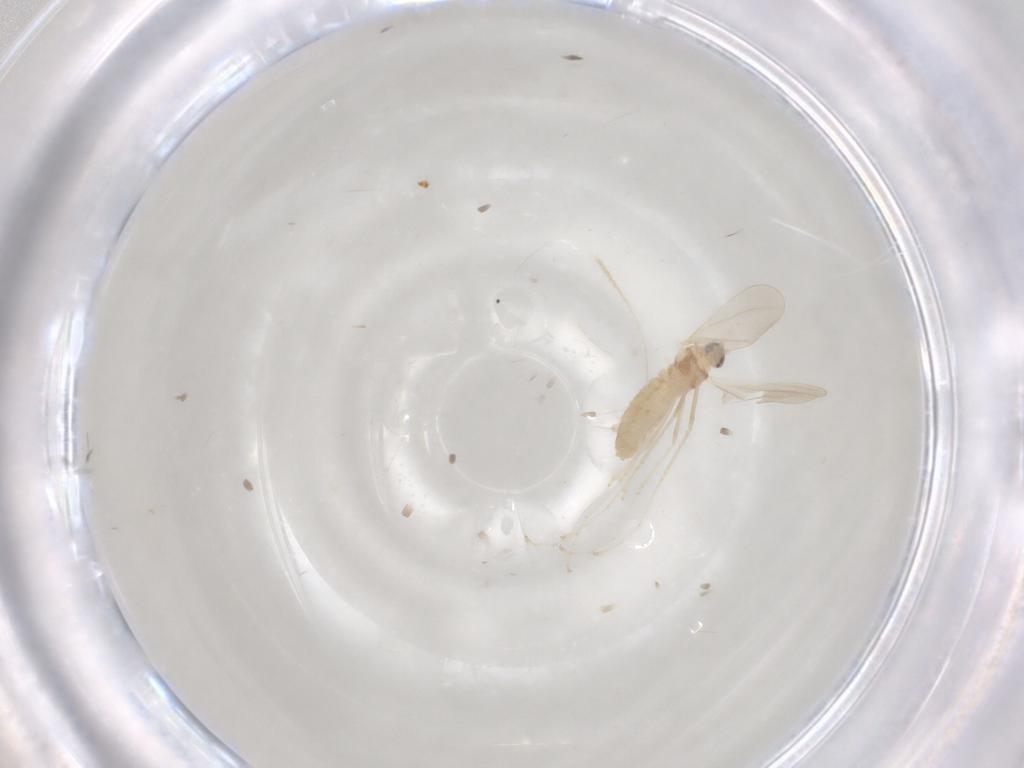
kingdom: Animalia
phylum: Arthropoda
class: Insecta
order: Diptera
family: Cecidomyiidae
